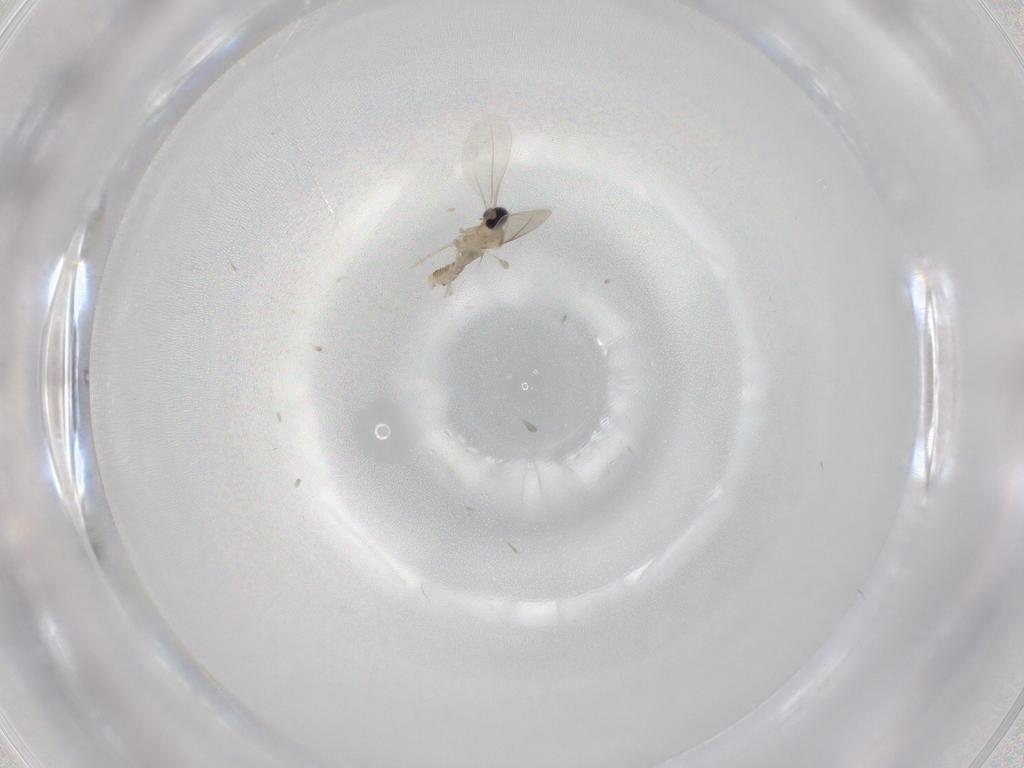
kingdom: Animalia
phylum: Arthropoda
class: Insecta
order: Diptera
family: Cecidomyiidae
